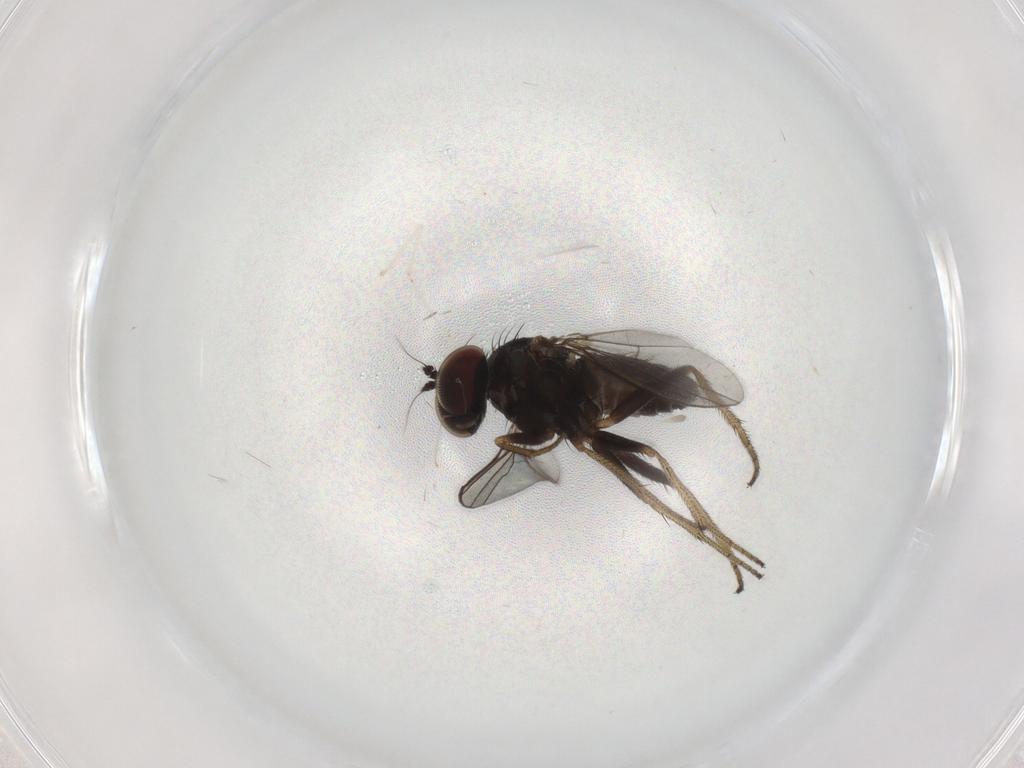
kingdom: Animalia
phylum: Arthropoda
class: Insecta
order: Diptera
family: Dolichopodidae
